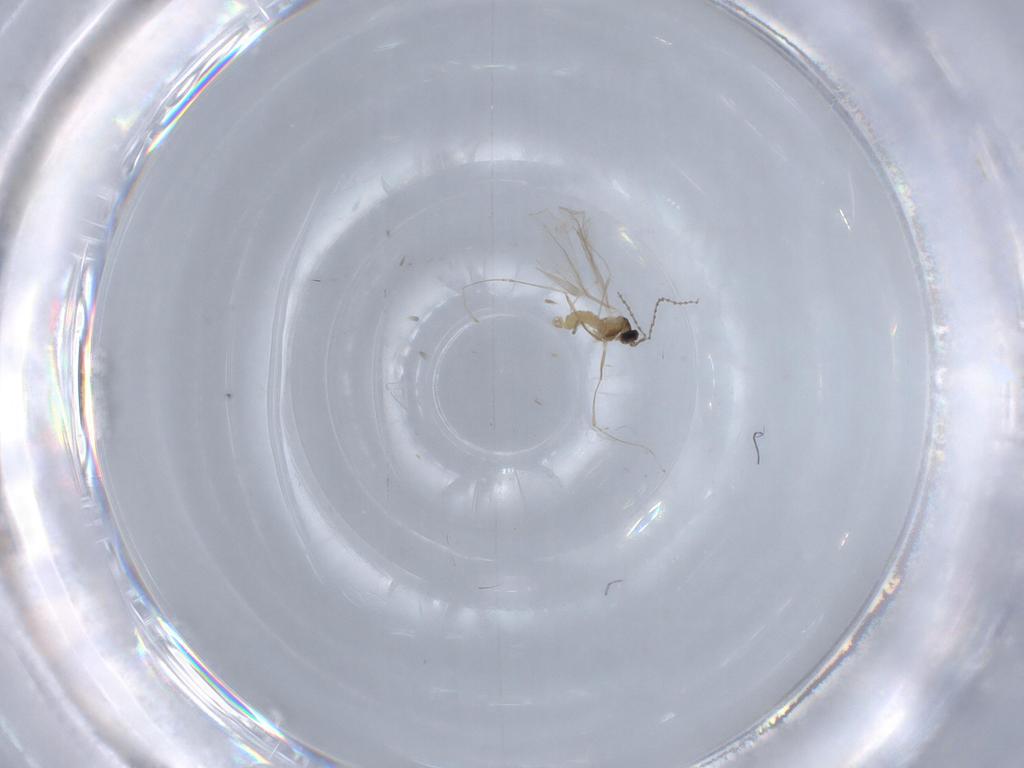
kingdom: Animalia
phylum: Arthropoda
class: Insecta
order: Diptera
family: Cecidomyiidae
